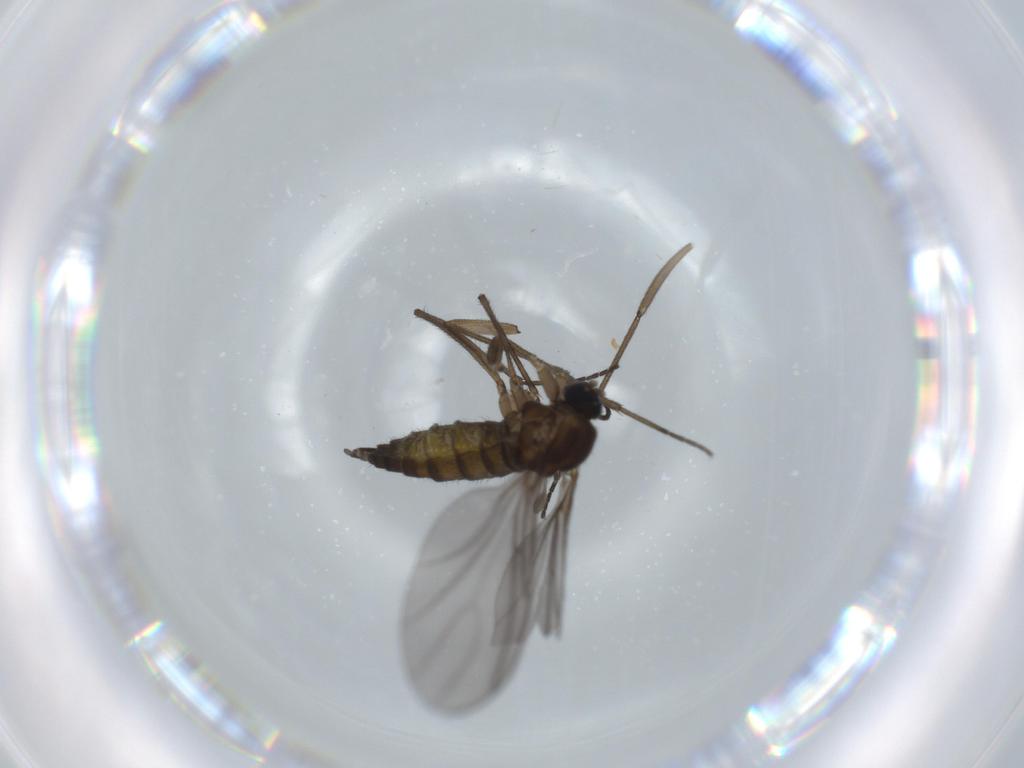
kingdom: Animalia
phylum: Arthropoda
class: Insecta
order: Diptera
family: Sciaridae
